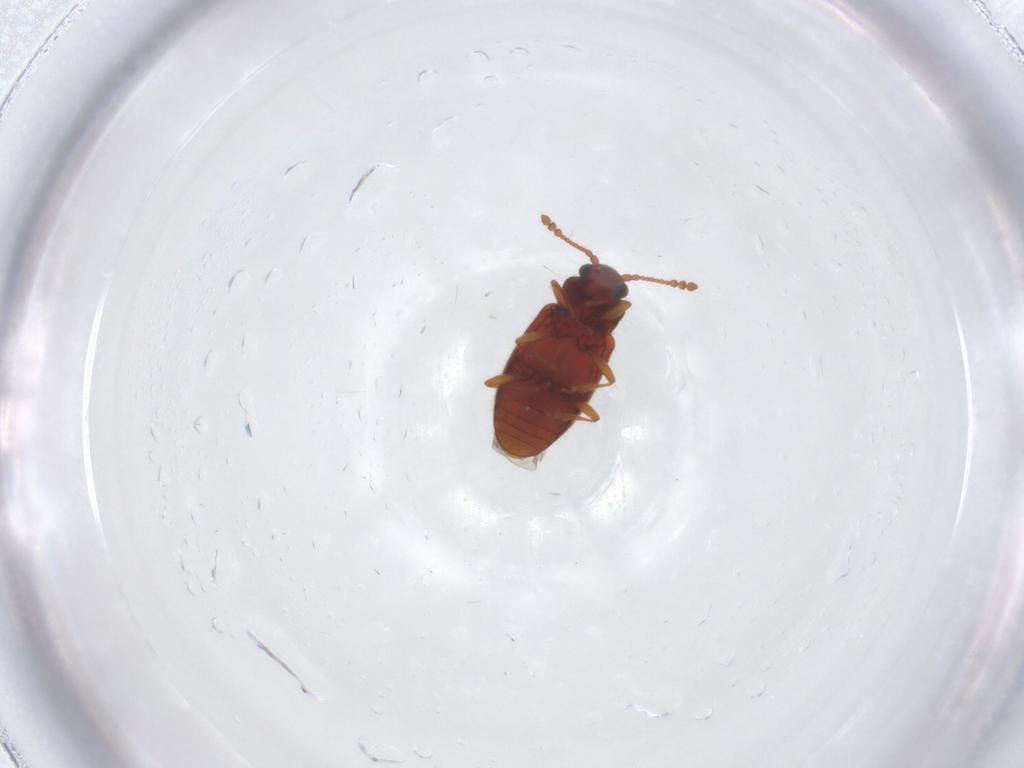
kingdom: Animalia
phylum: Arthropoda
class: Insecta
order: Coleoptera
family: Cryptophagidae
